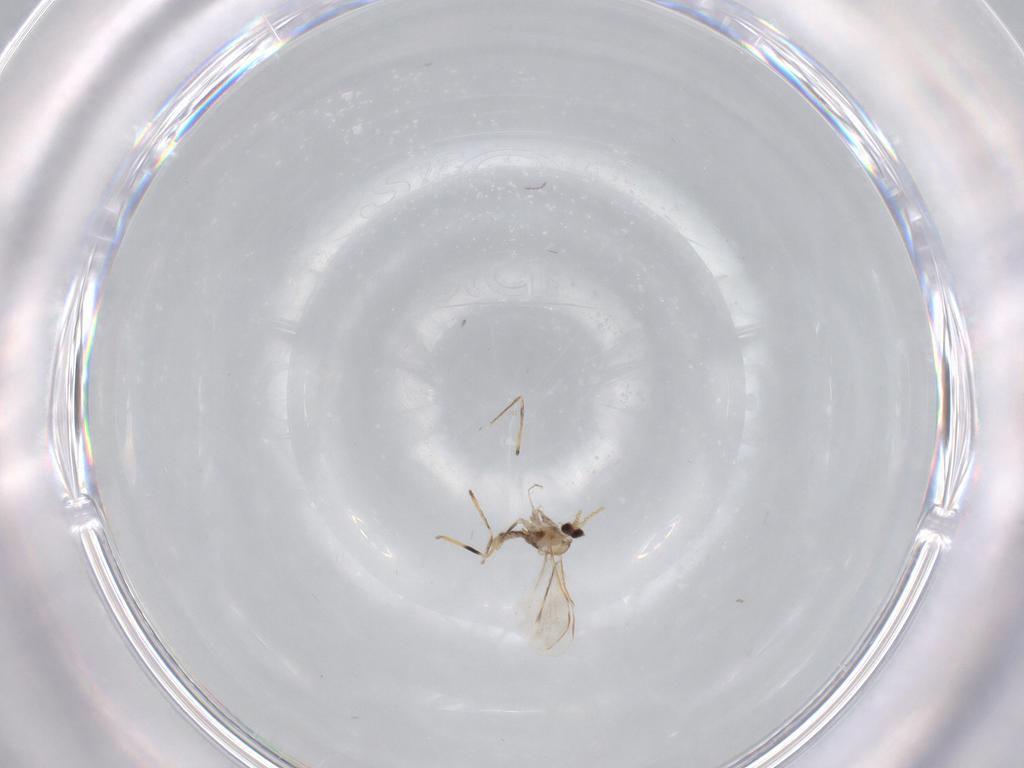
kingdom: Animalia
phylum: Arthropoda
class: Insecta
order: Diptera
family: Cecidomyiidae
